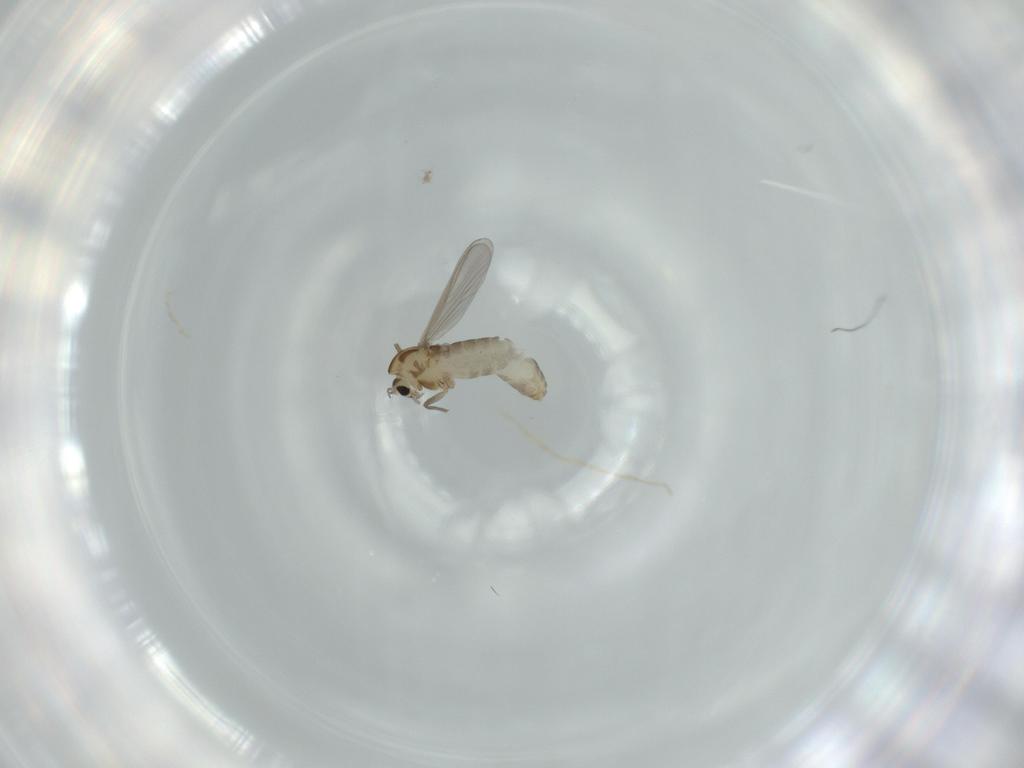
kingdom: Animalia
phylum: Arthropoda
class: Insecta
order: Diptera
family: Chironomidae
